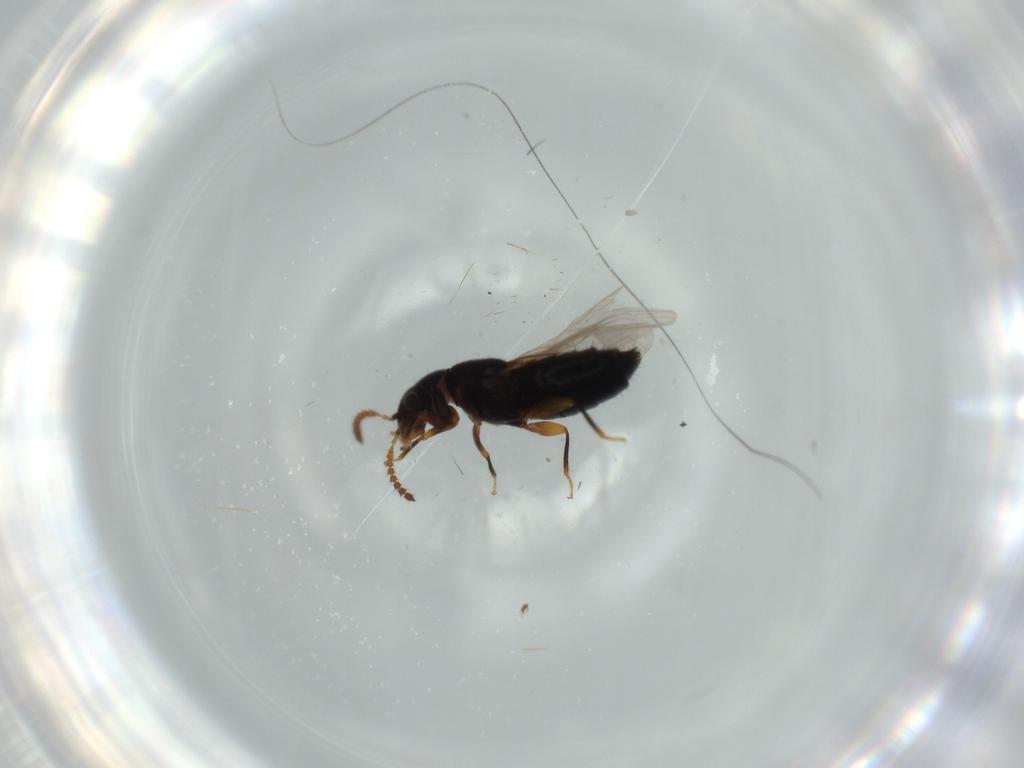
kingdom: Animalia
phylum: Arthropoda
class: Insecta
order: Coleoptera
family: Staphylinidae
